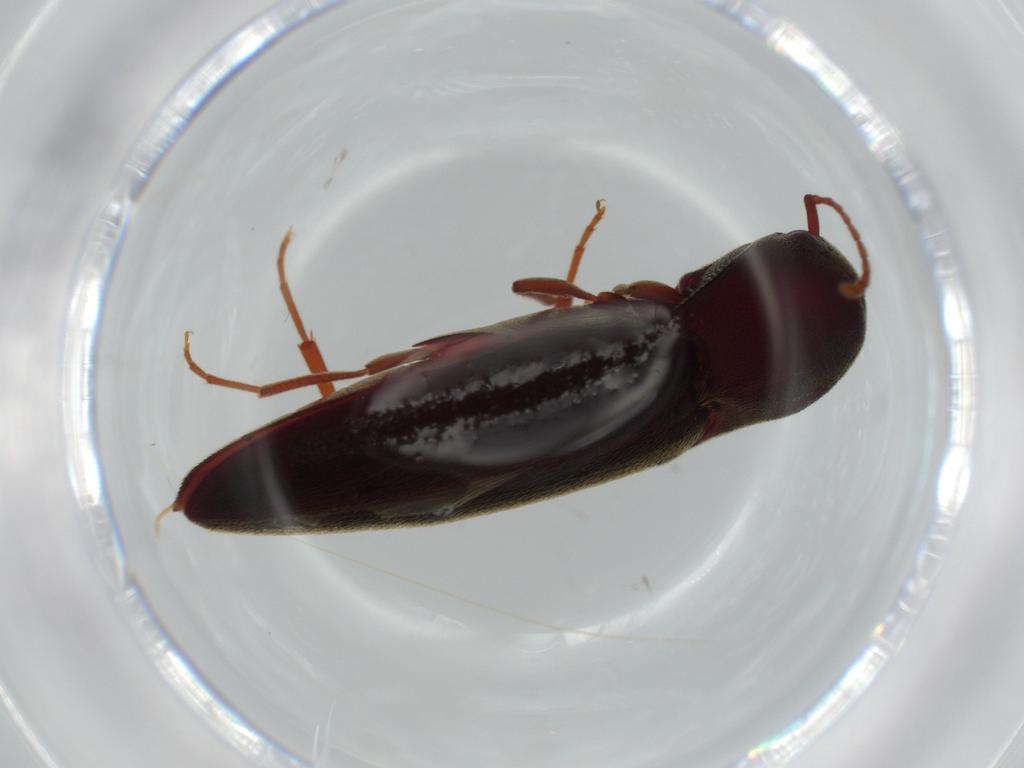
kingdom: Animalia
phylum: Arthropoda
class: Insecta
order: Coleoptera
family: Eucnemidae
